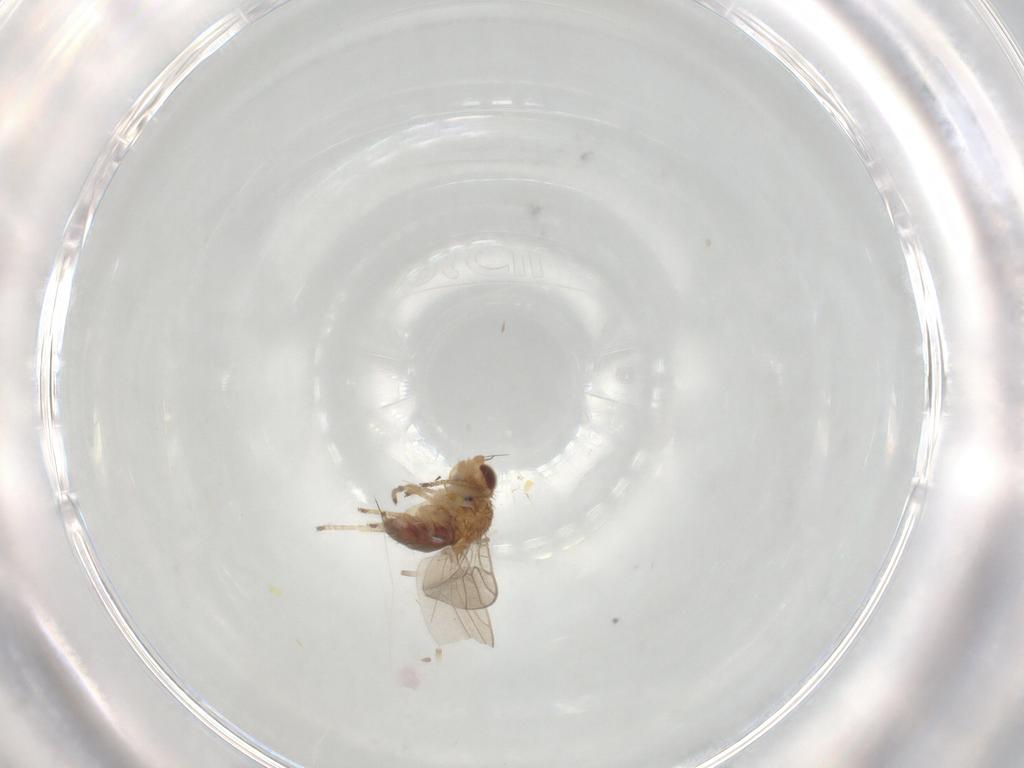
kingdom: Animalia
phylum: Arthropoda
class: Insecta
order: Diptera
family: Chloropidae
